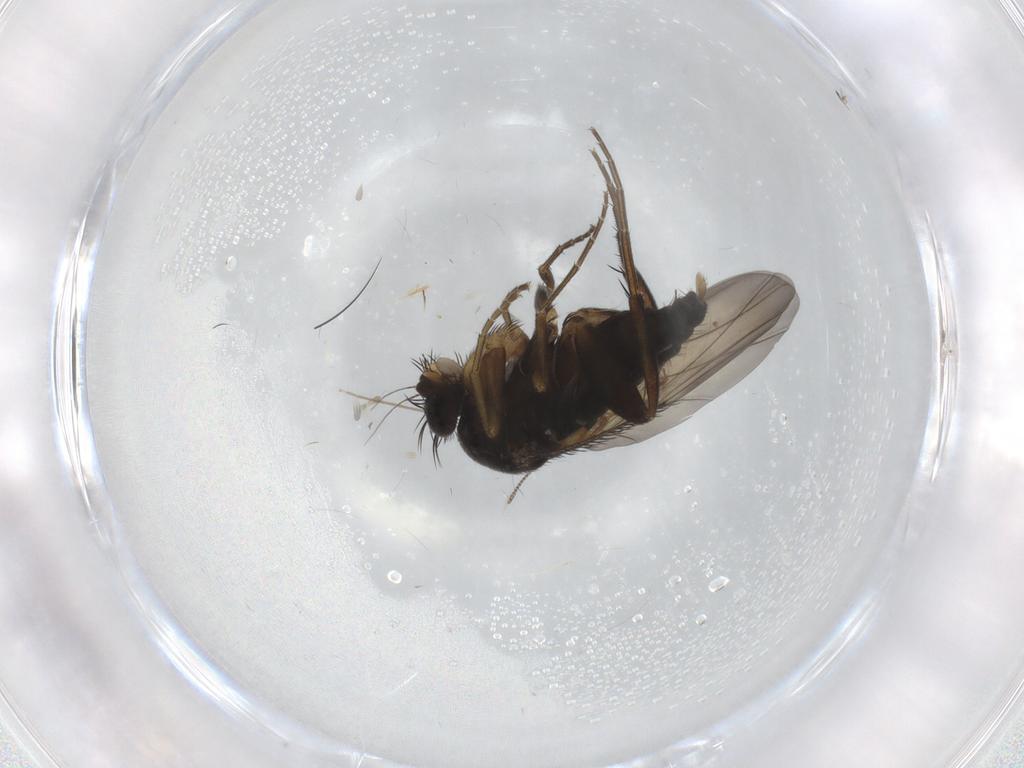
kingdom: Animalia
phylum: Arthropoda
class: Insecta
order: Diptera
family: Phoridae
